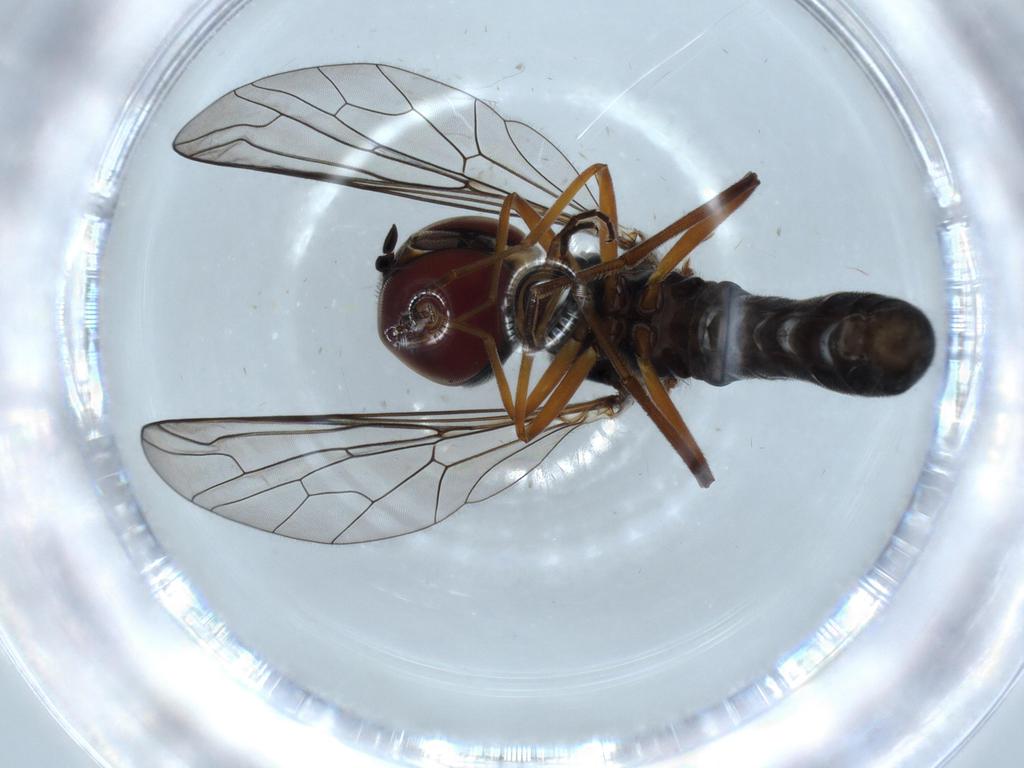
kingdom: Animalia
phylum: Arthropoda
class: Insecta
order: Diptera
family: Bombyliidae
